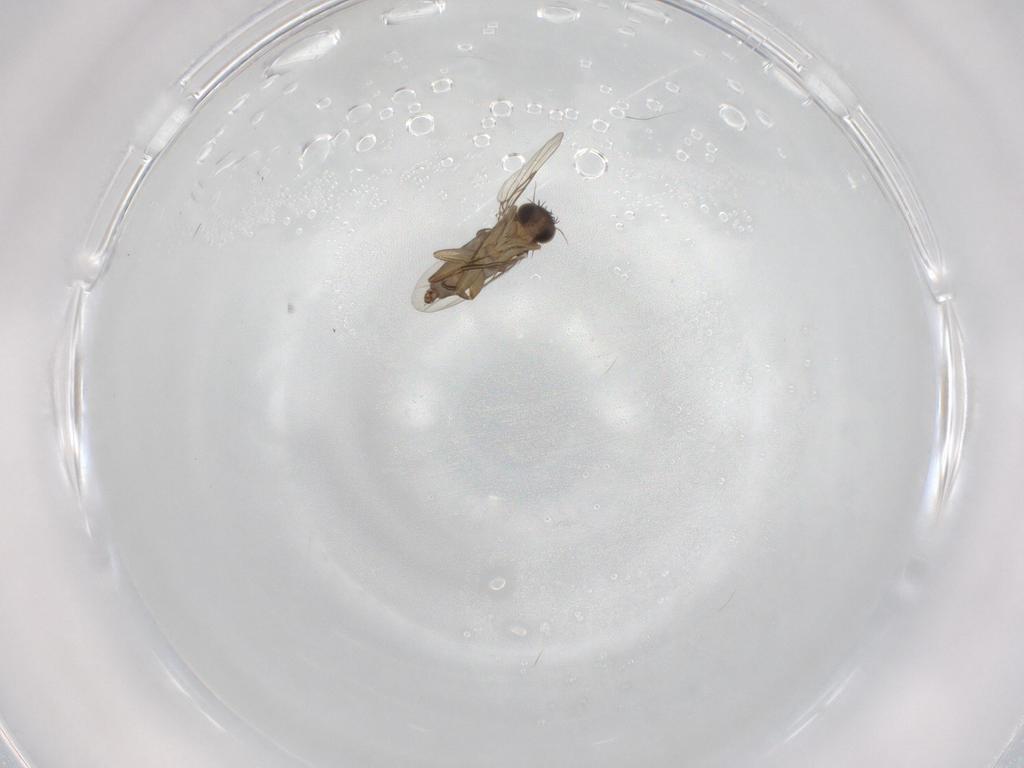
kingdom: Animalia
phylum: Arthropoda
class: Insecta
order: Diptera
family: Phoridae
